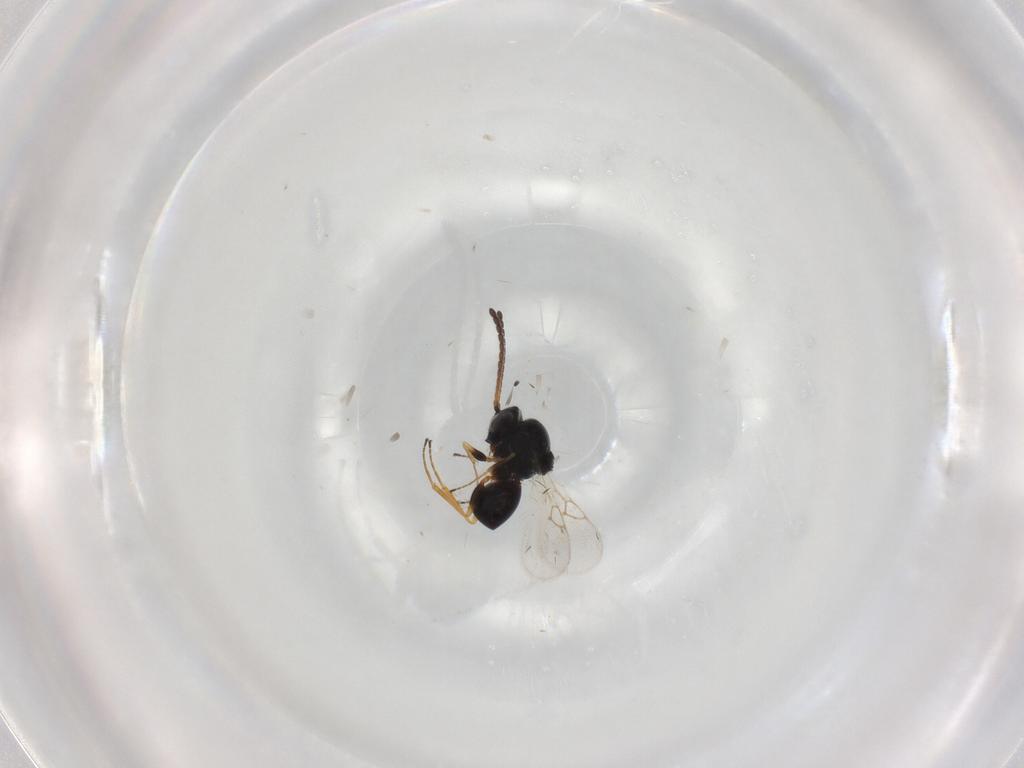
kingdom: Animalia
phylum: Arthropoda
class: Insecta
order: Hymenoptera
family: Figitidae
